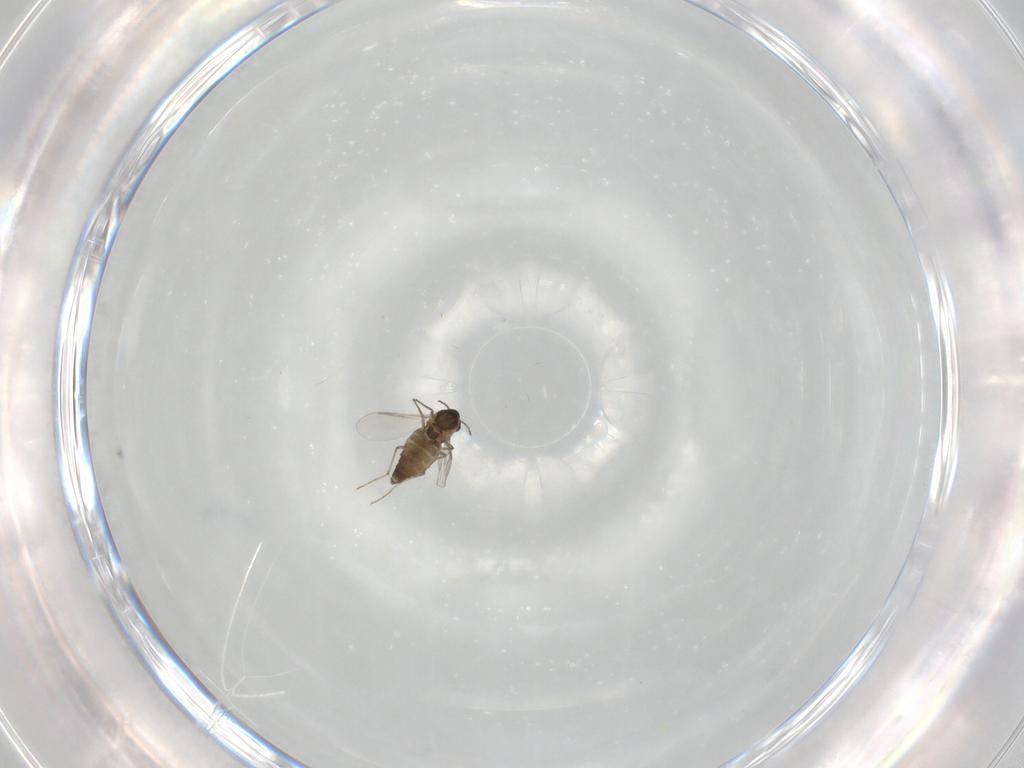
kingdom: Animalia
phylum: Arthropoda
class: Insecta
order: Diptera
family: Chironomidae
